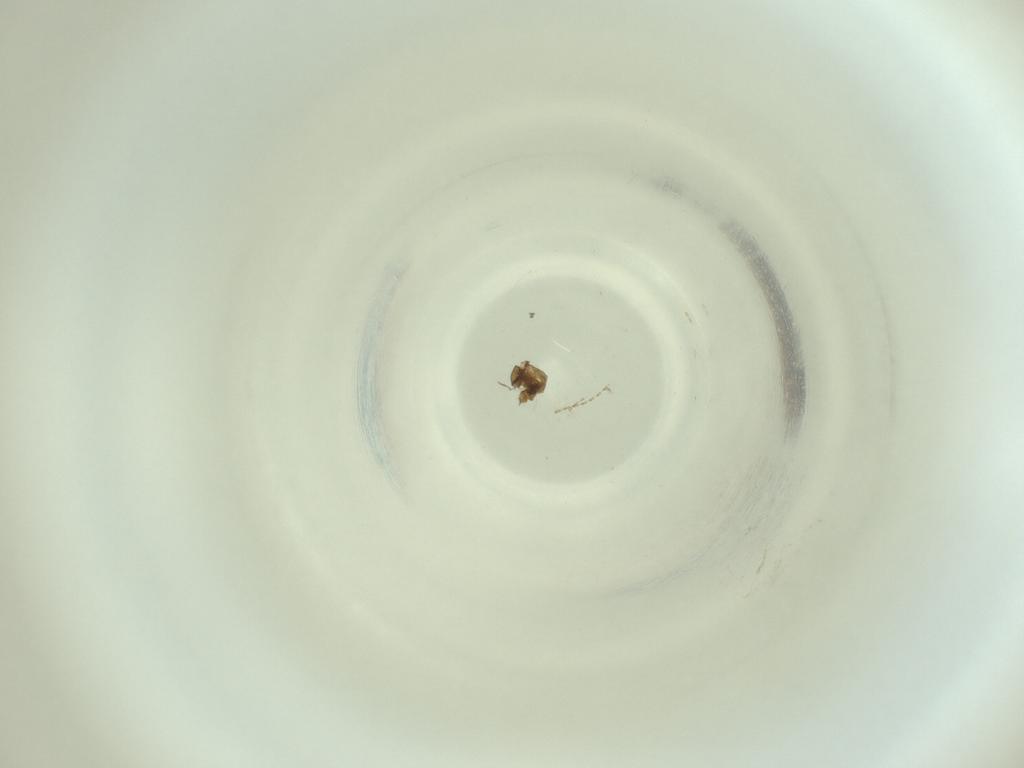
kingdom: Animalia
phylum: Arthropoda
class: Insecta
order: Diptera
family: Cecidomyiidae
